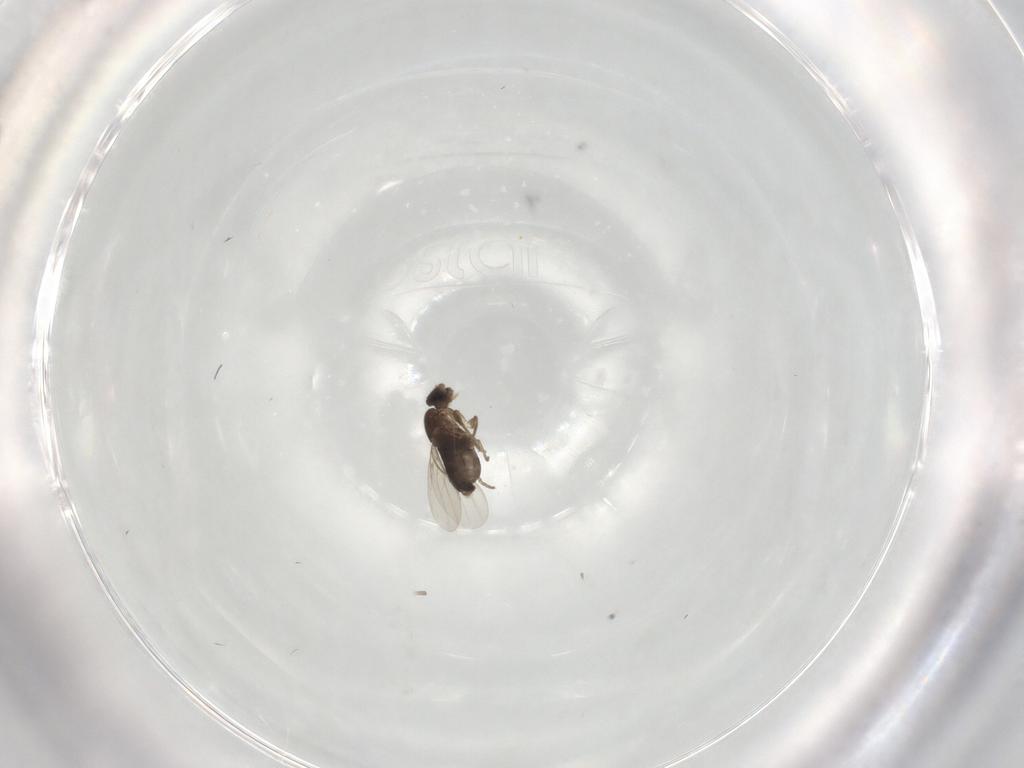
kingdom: Animalia
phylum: Arthropoda
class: Insecta
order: Diptera
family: Phoridae
